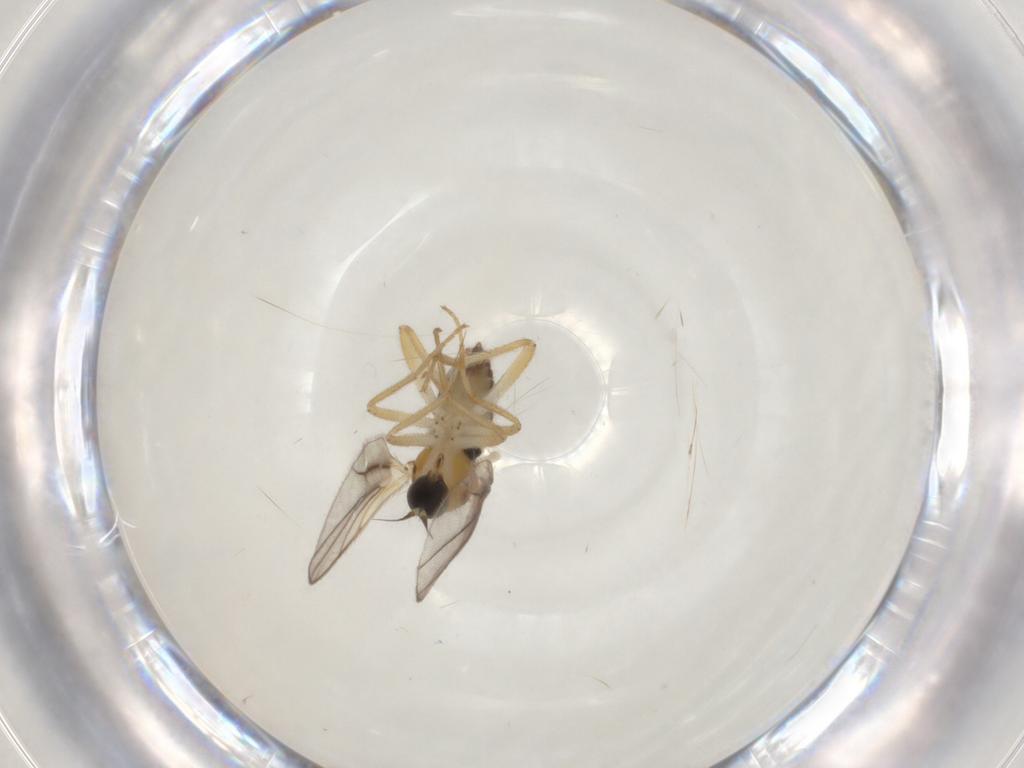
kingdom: Animalia
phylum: Arthropoda
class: Insecta
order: Diptera
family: Hybotidae
